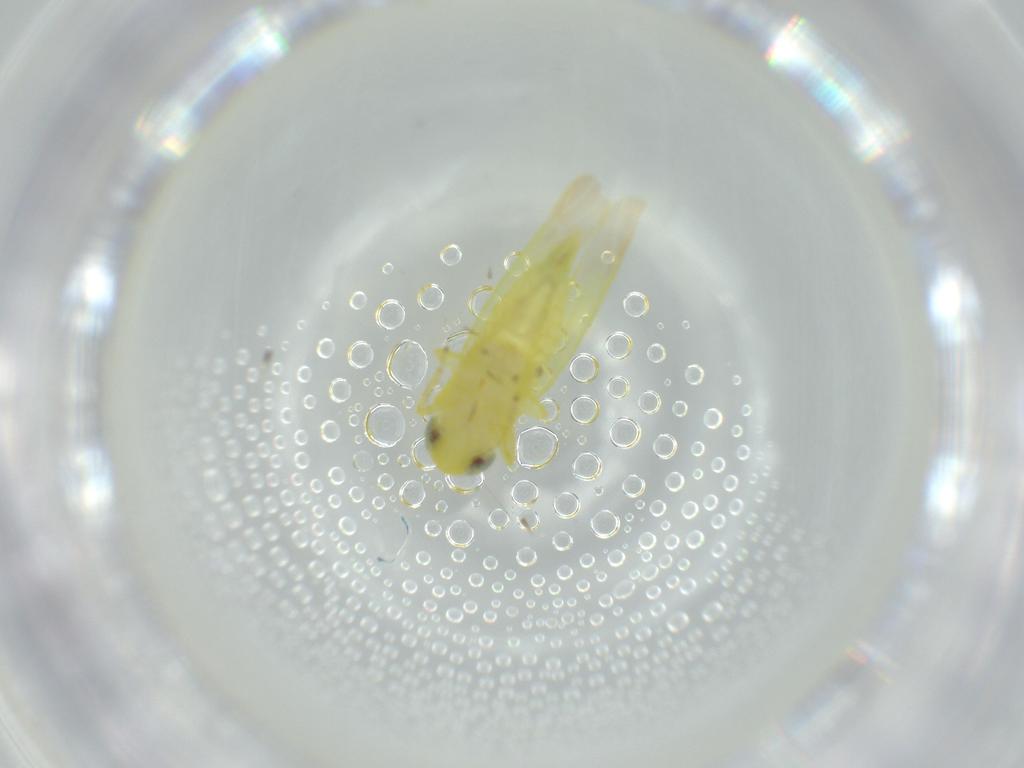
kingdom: Animalia
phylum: Arthropoda
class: Insecta
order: Hemiptera
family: Cicadellidae
